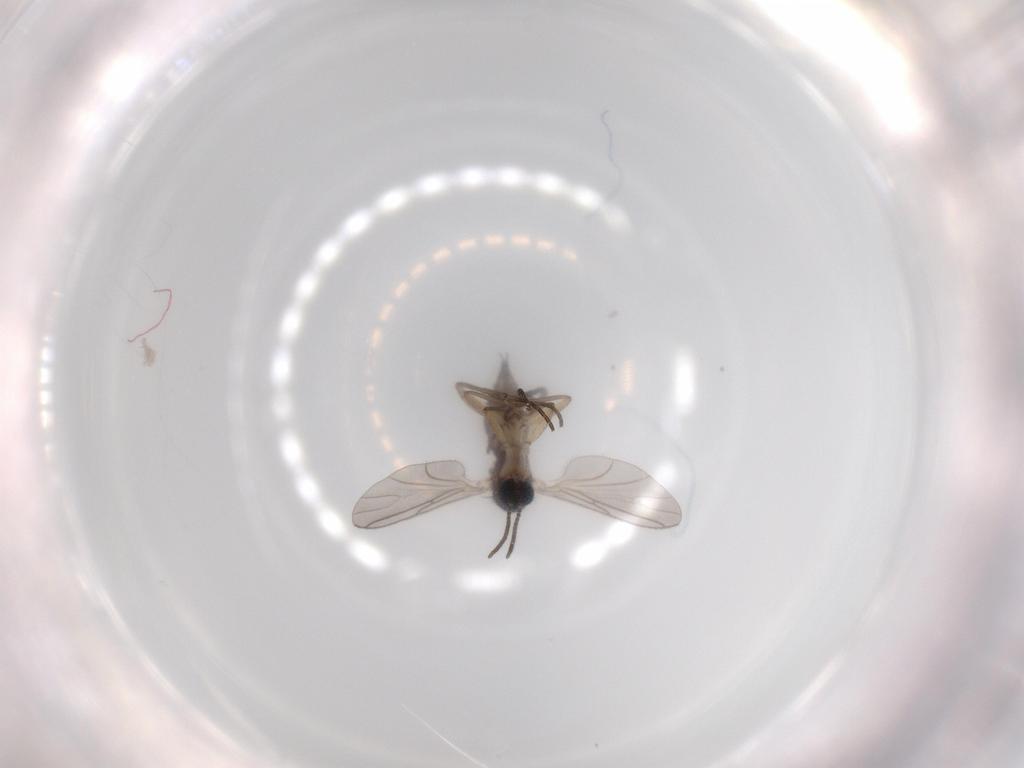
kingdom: Animalia
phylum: Arthropoda
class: Insecta
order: Diptera
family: Sciaridae
